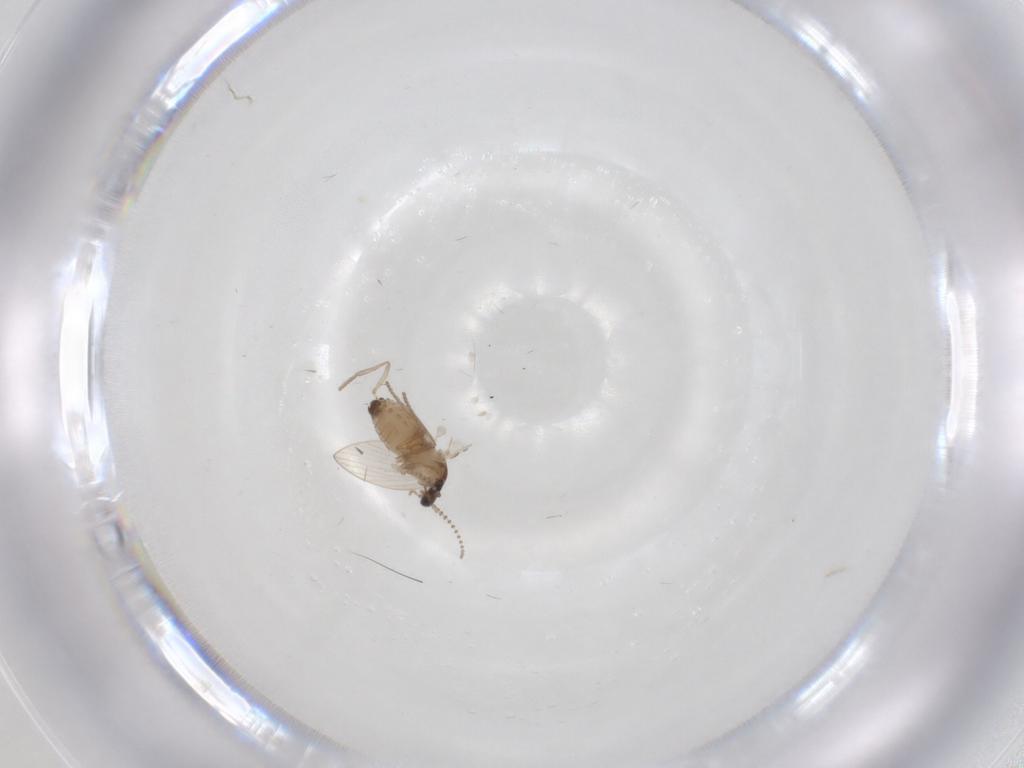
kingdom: Animalia
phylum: Arthropoda
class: Insecta
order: Diptera
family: Psychodidae
